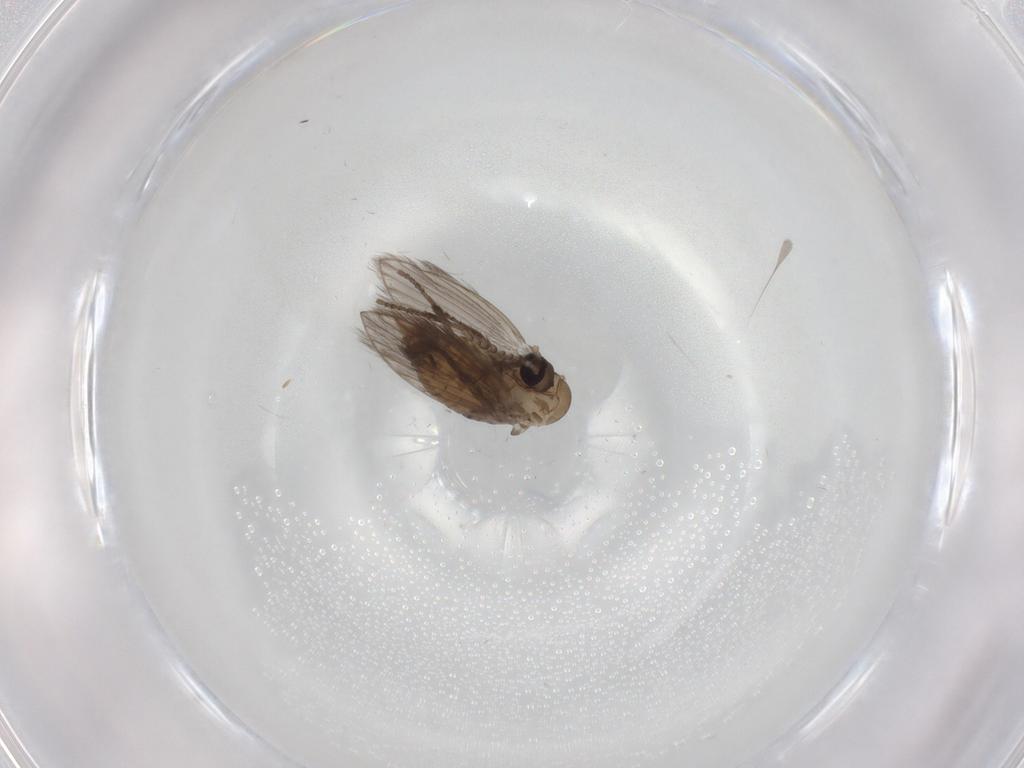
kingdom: Animalia
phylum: Arthropoda
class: Insecta
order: Diptera
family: Psychodidae
